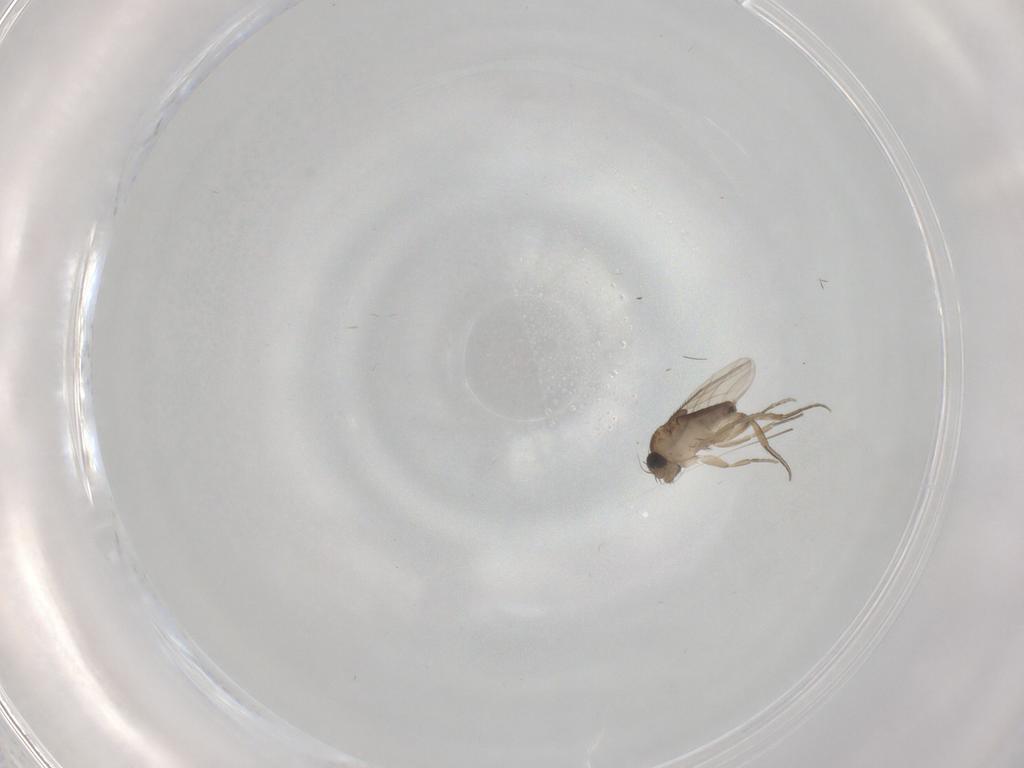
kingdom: Animalia
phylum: Arthropoda
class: Insecta
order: Diptera
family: Phoridae
